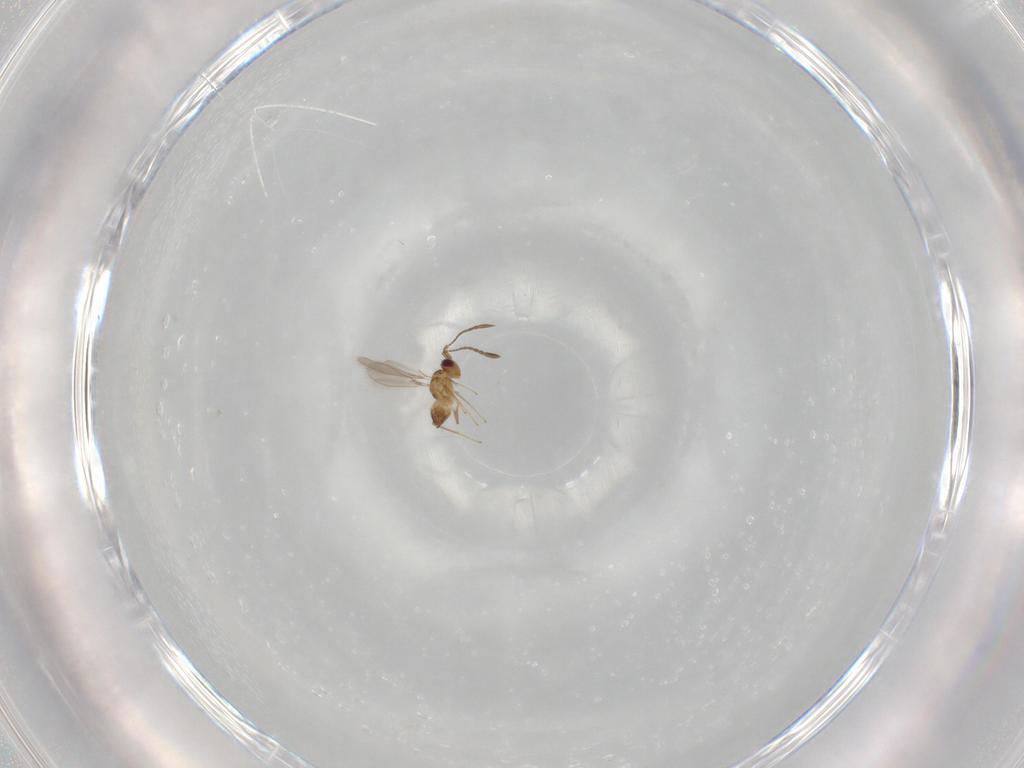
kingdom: Animalia
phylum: Arthropoda
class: Insecta
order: Hymenoptera
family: Mymaridae
